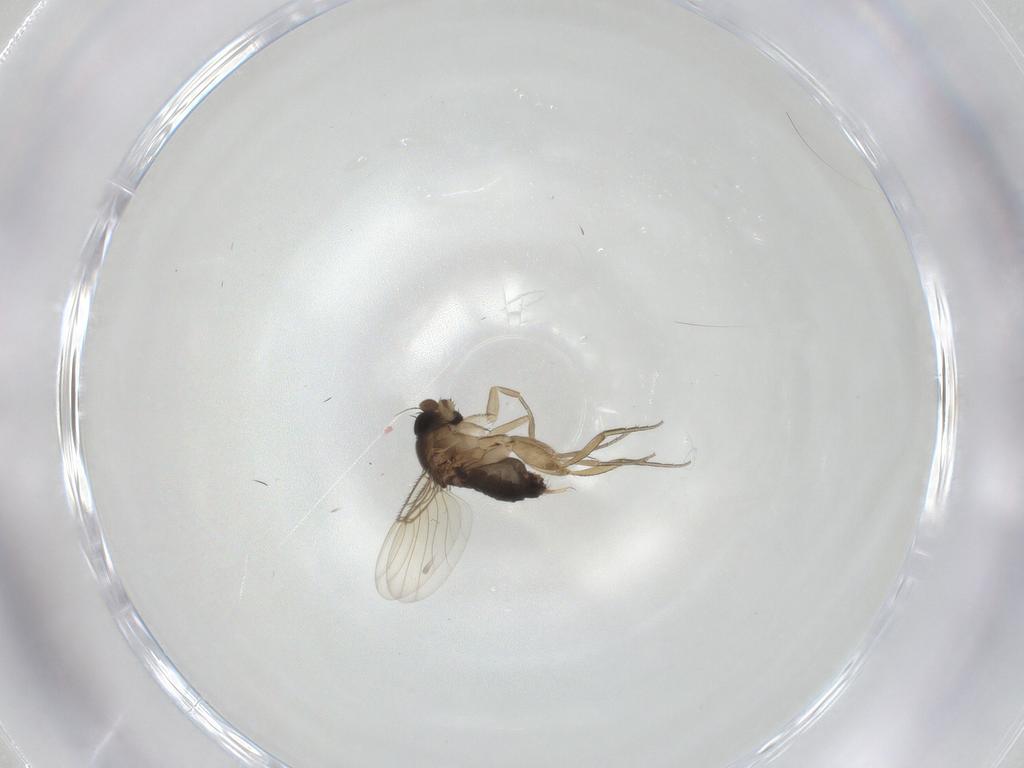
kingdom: Animalia
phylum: Arthropoda
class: Insecta
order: Diptera
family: Phoridae
